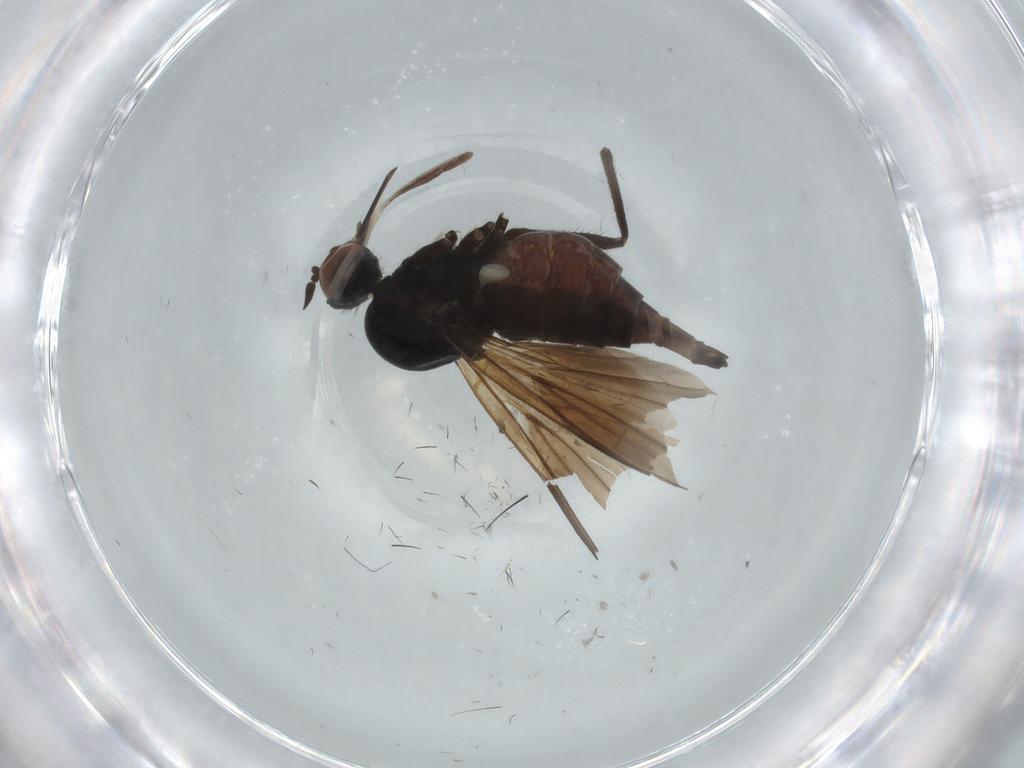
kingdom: Animalia
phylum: Arthropoda
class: Insecta
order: Diptera
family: Empididae
